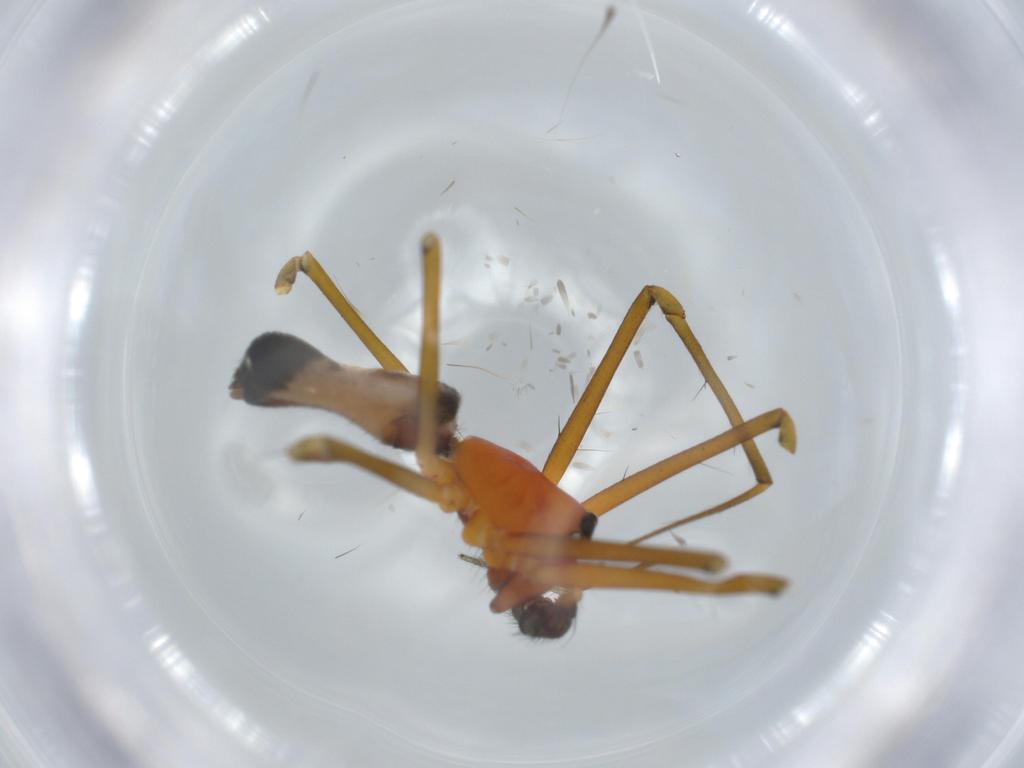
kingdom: Animalia
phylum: Arthropoda
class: Arachnida
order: Araneae
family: Linyphiidae
